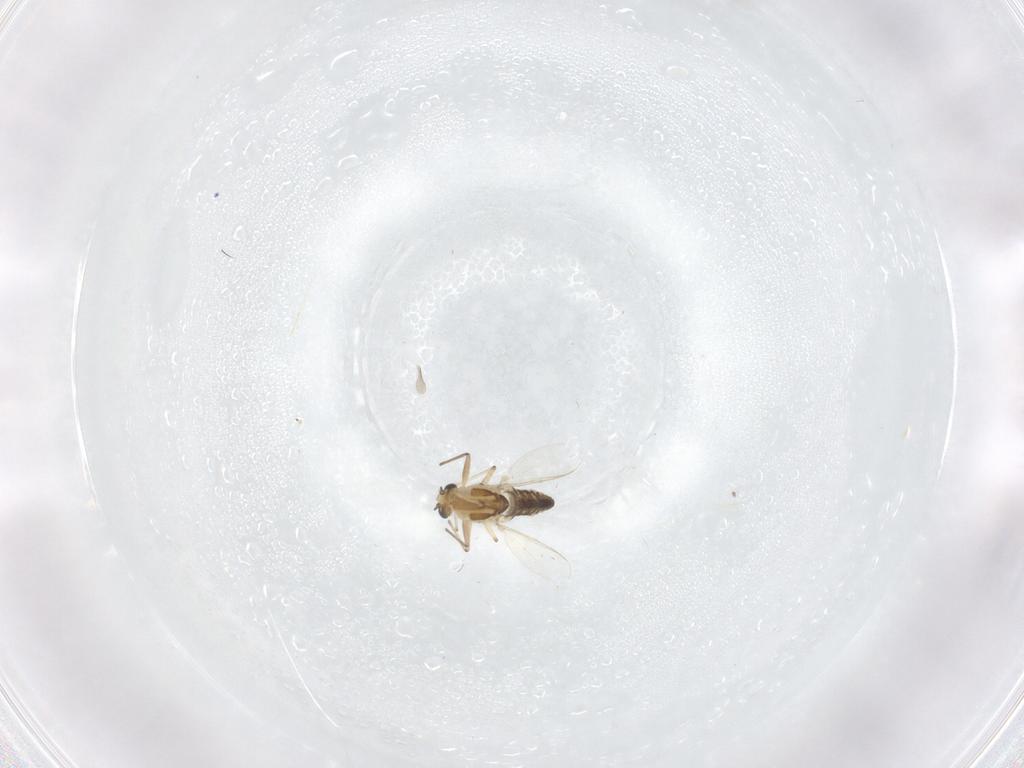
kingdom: Animalia
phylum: Arthropoda
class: Insecta
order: Diptera
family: Chironomidae
